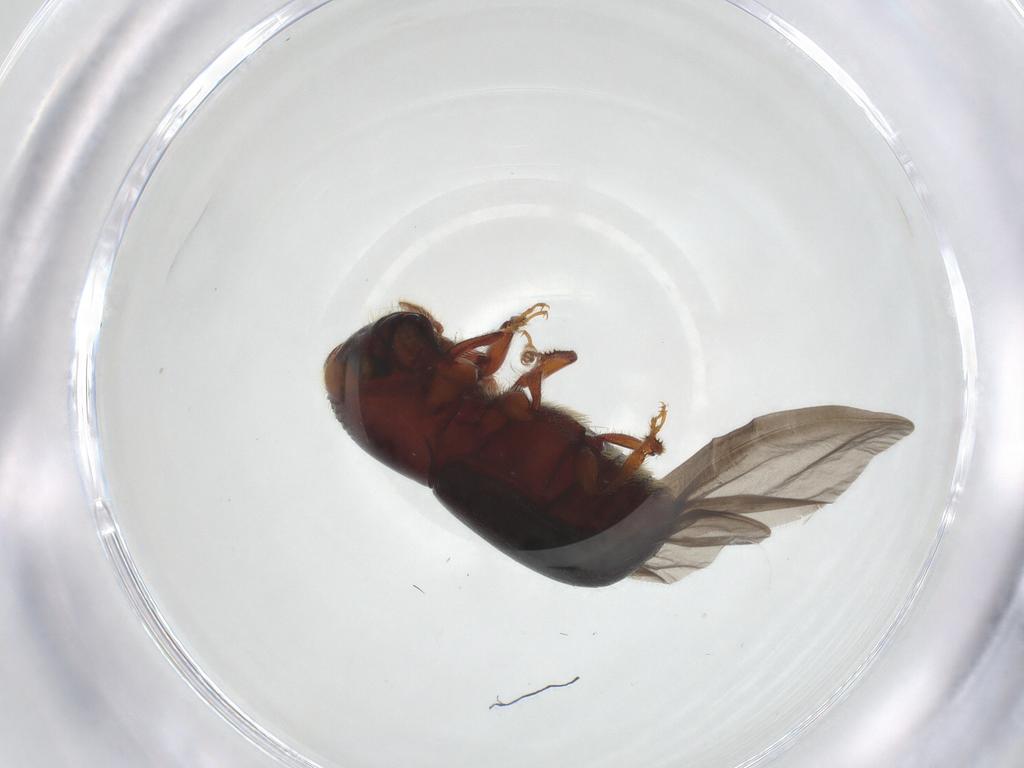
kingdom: Animalia
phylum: Arthropoda
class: Insecta
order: Coleoptera
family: Curculionidae
